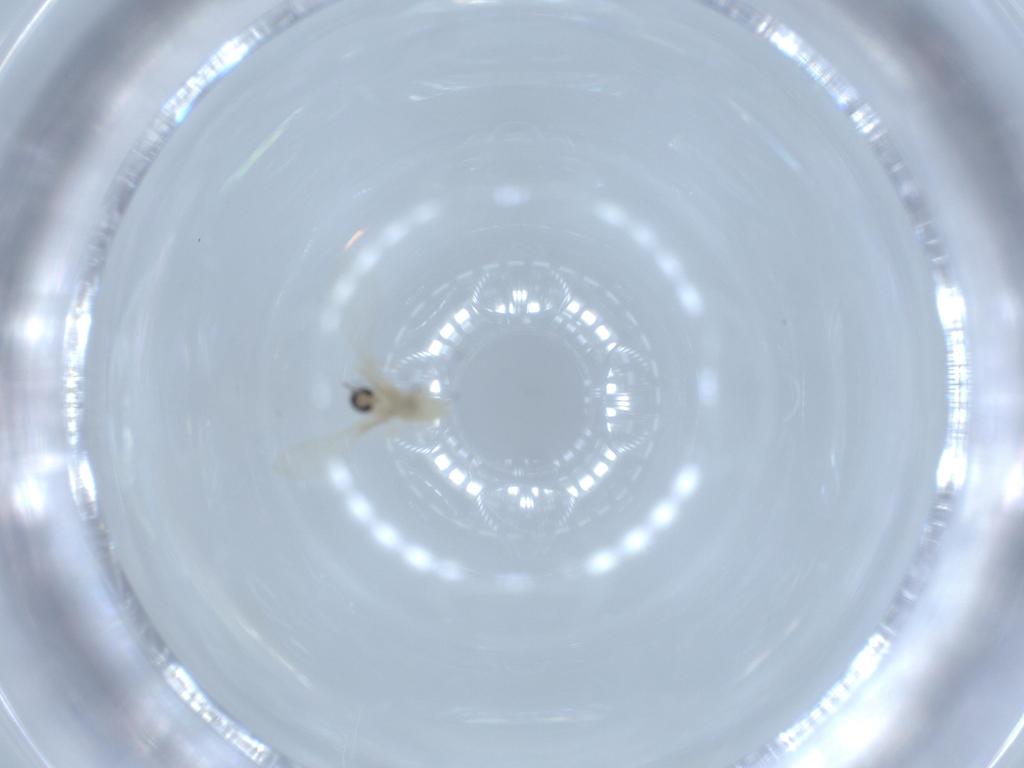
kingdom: Animalia
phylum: Arthropoda
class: Insecta
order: Diptera
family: Cecidomyiidae
